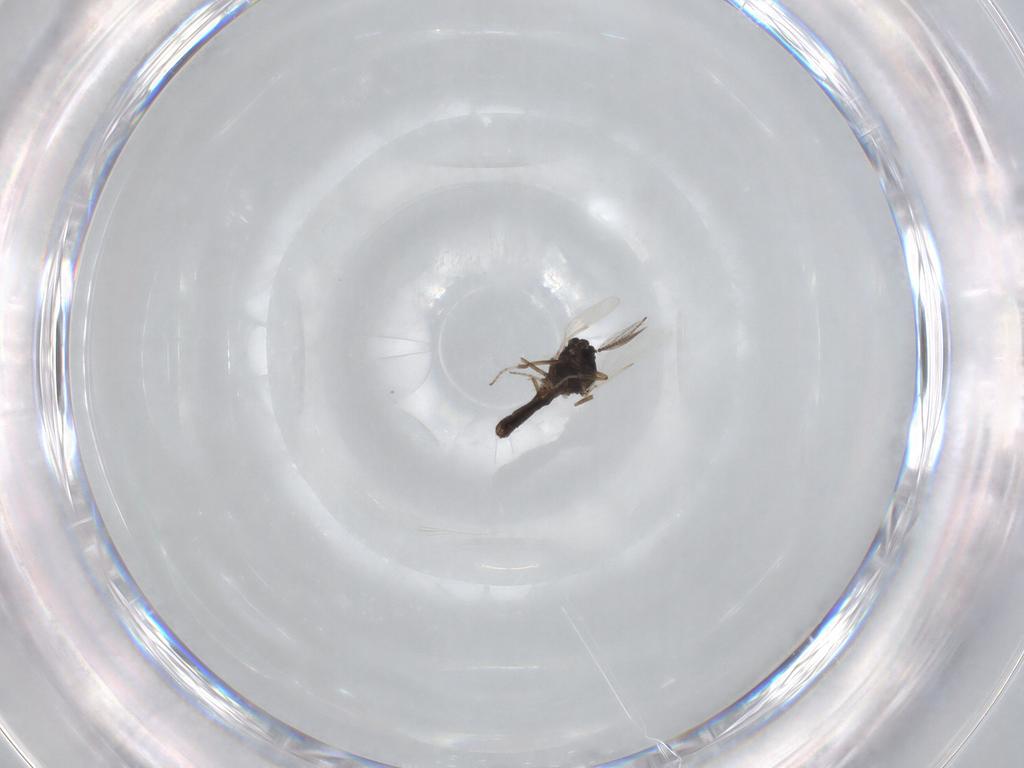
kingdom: Animalia
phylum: Arthropoda
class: Insecta
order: Diptera
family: Ceratopogonidae
